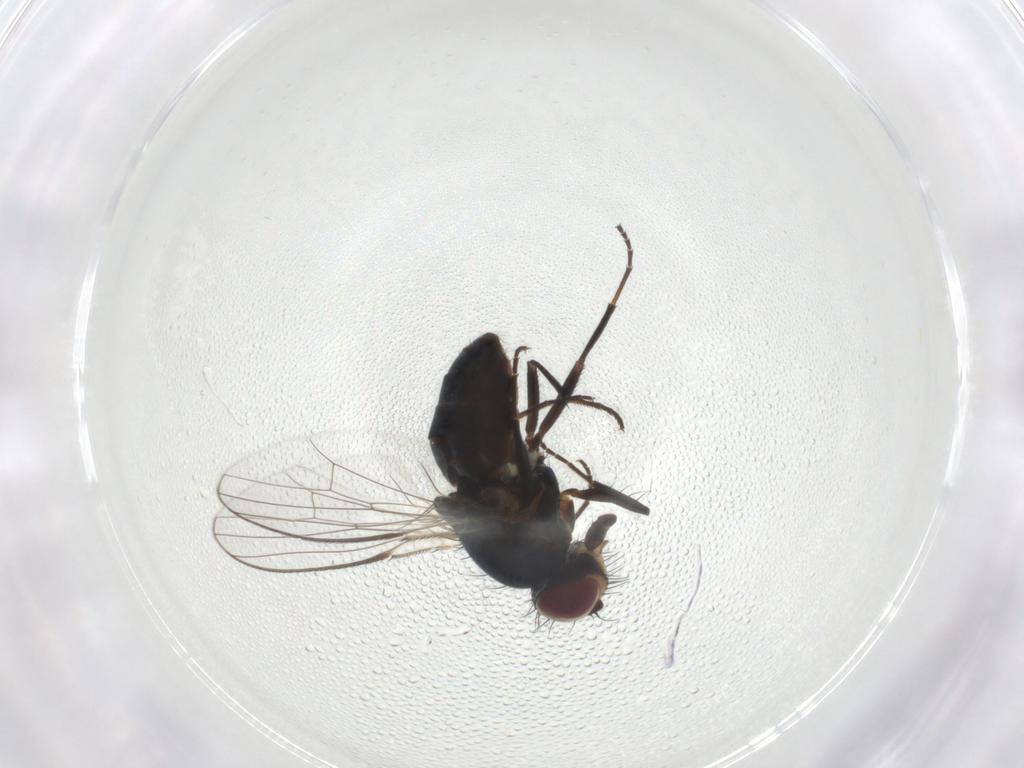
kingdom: Animalia
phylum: Arthropoda
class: Insecta
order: Diptera
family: Carnidae
